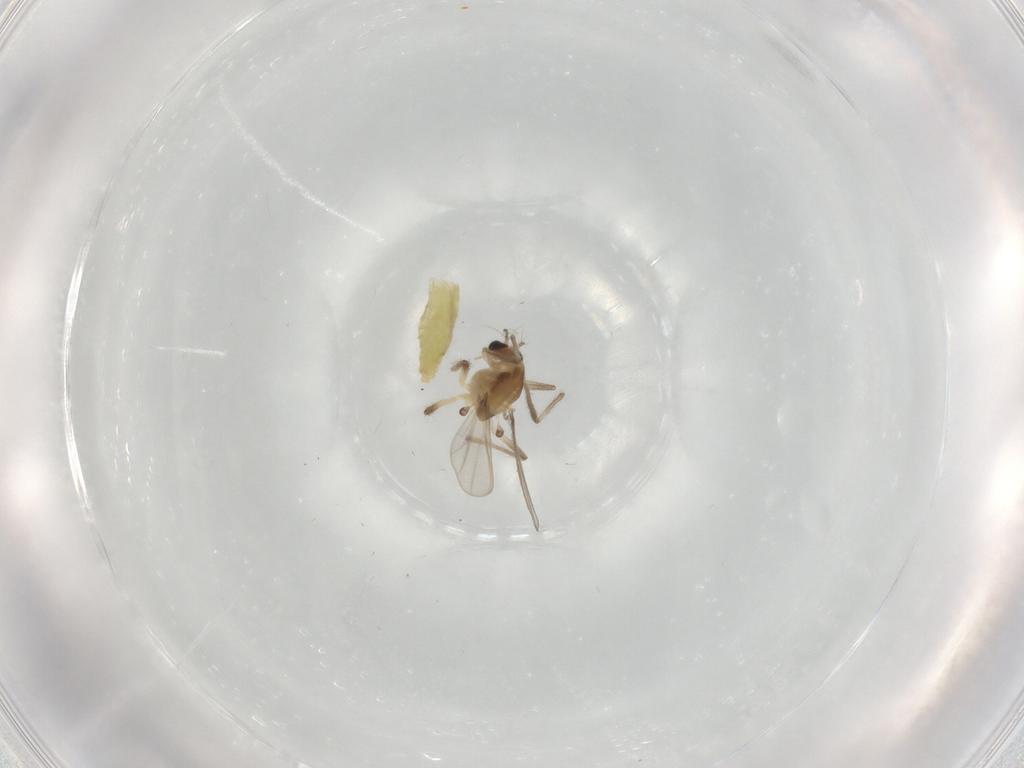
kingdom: Animalia
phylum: Arthropoda
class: Insecta
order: Diptera
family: Chironomidae
